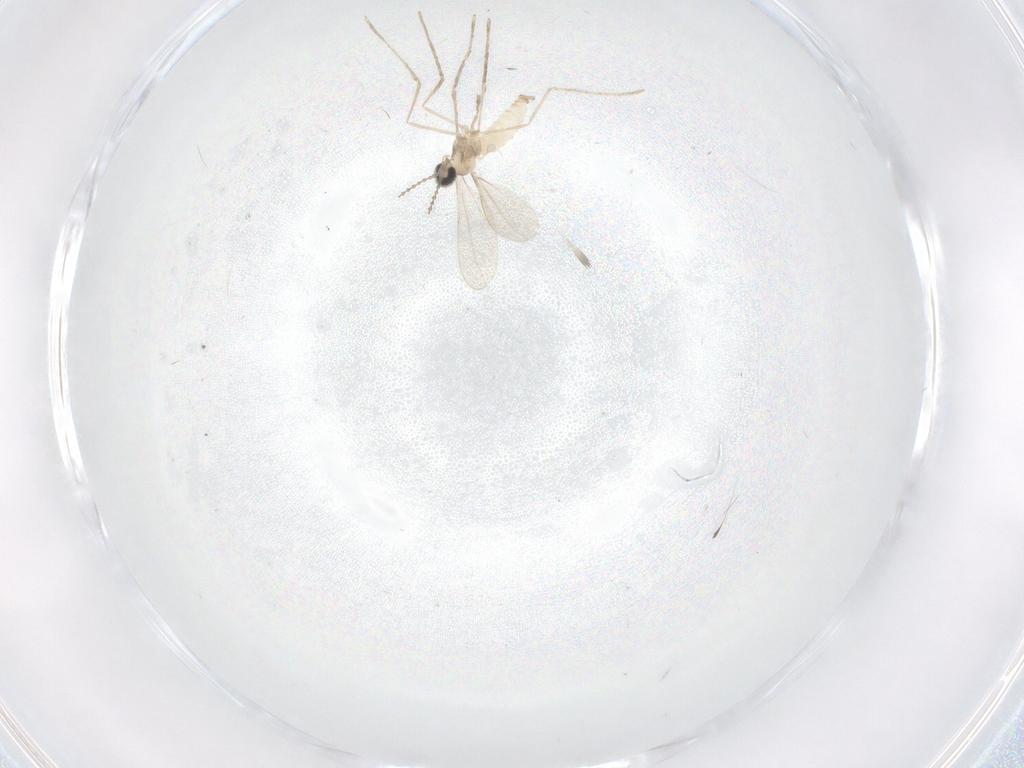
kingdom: Animalia
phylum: Arthropoda
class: Insecta
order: Diptera
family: Cecidomyiidae
